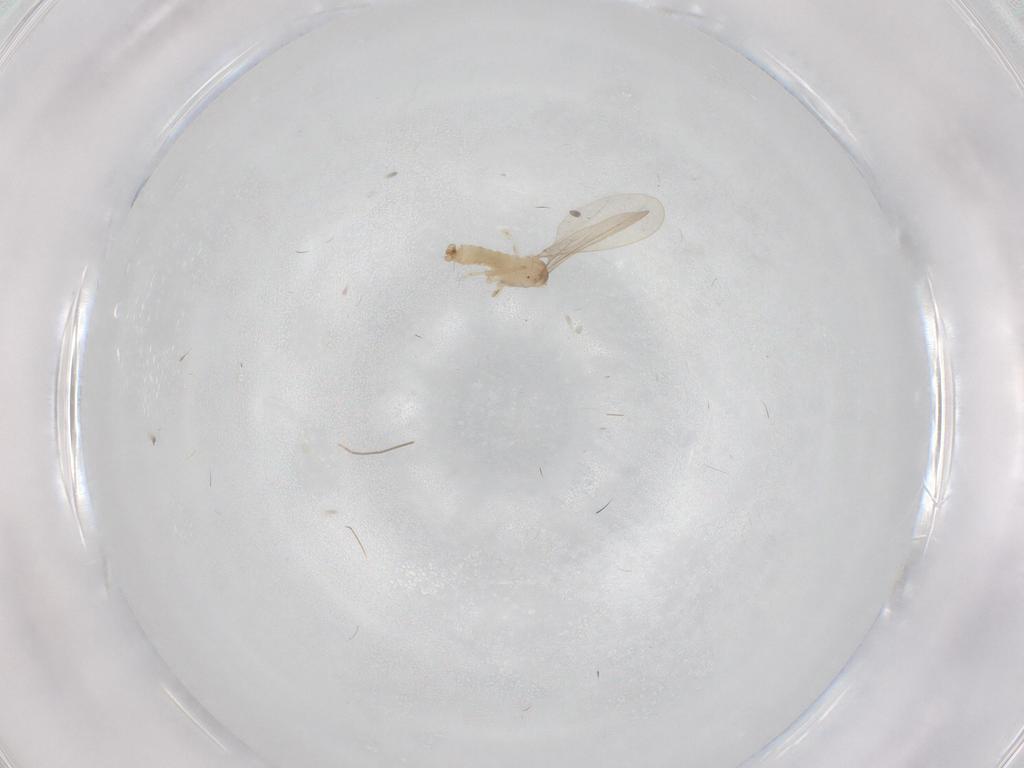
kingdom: Animalia
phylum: Arthropoda
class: Insecta
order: Diptera
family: Cecidomyiidae
